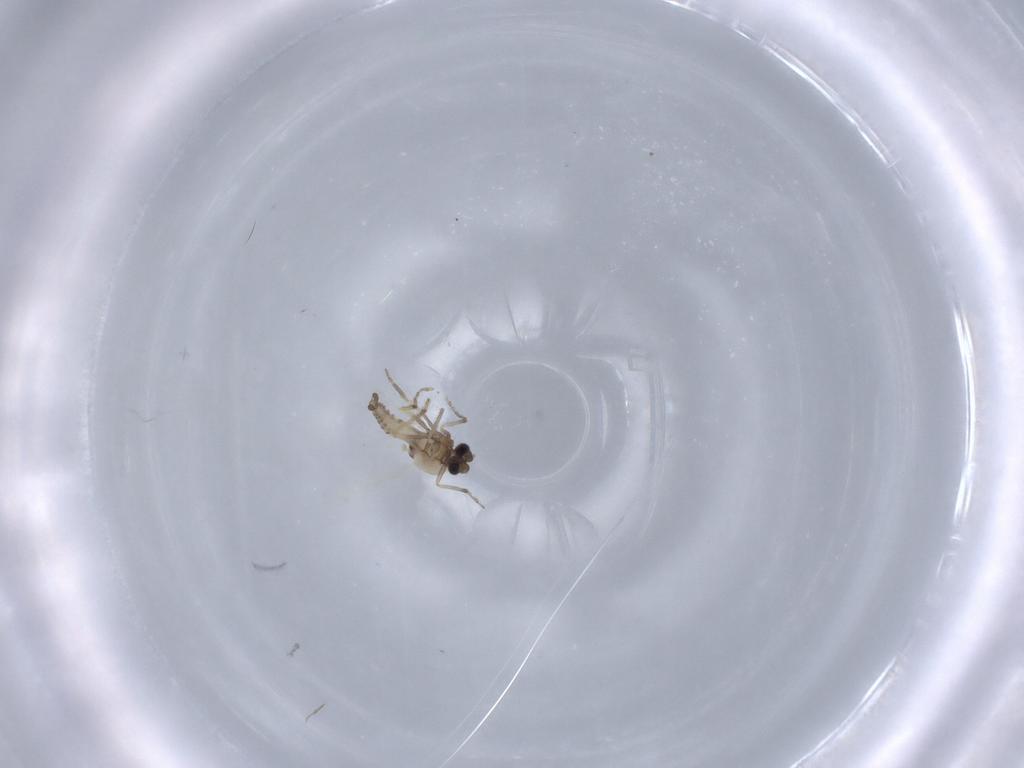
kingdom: Animalia
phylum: Arthropoda
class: Insecta
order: Diptera
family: Ceratopogonidae
